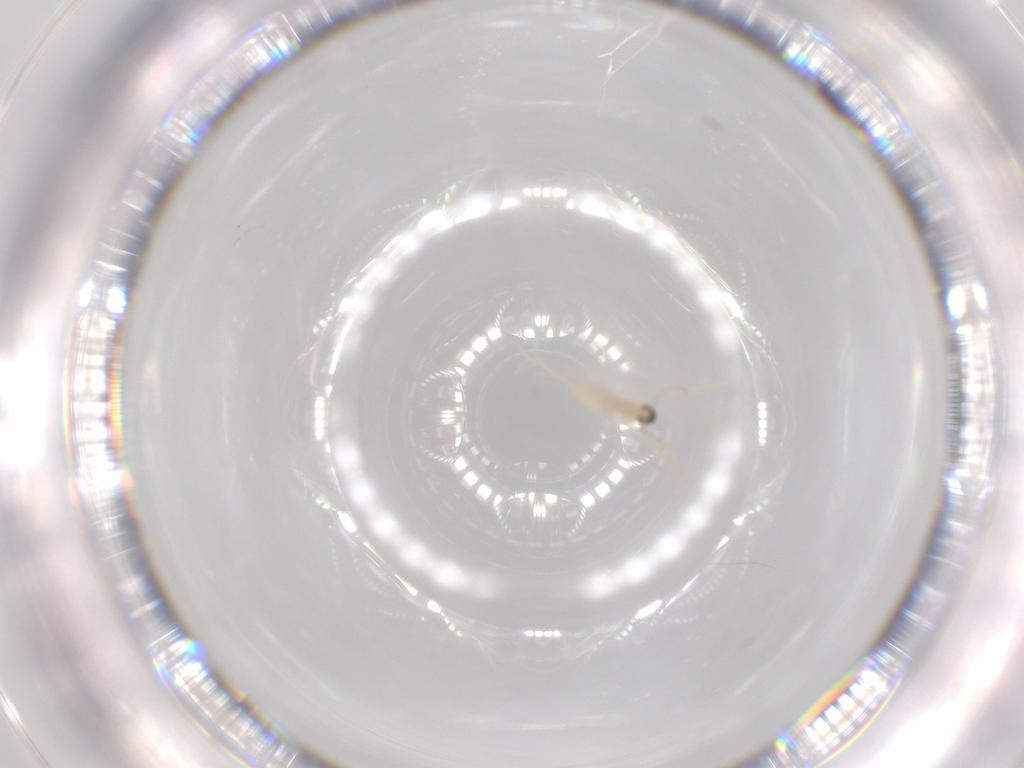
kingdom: Animalia
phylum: Arthropoda
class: Insecta
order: Diptera
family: Cecidomyiidae
